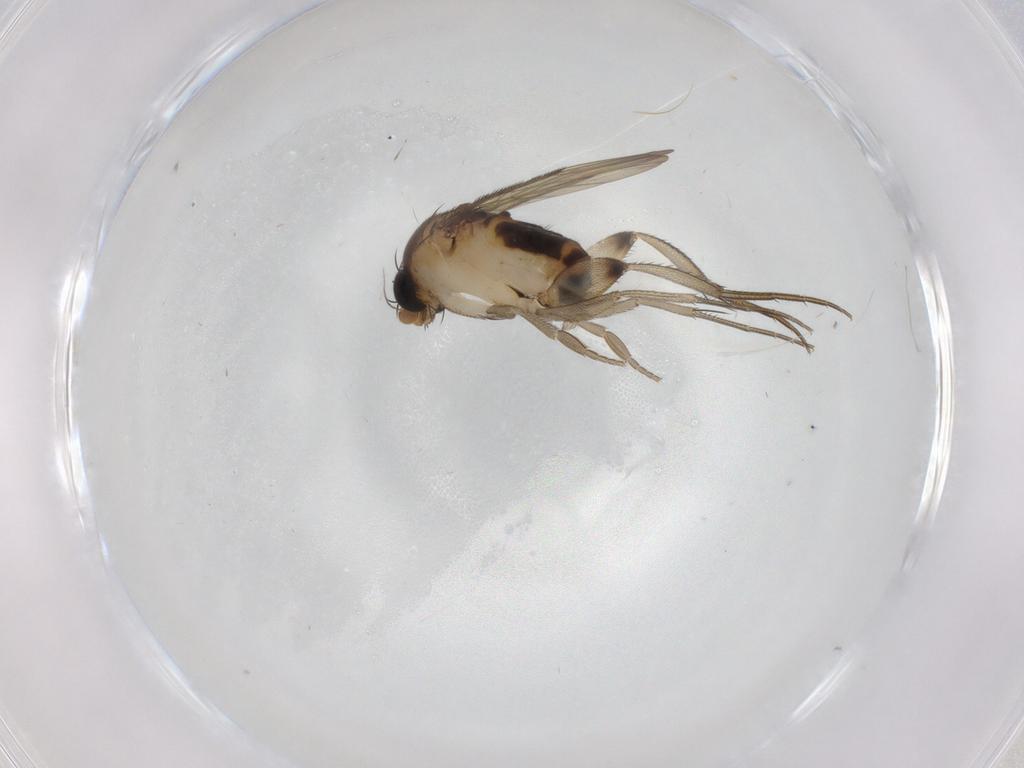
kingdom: Animalia
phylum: Arthropoda
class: Insecta
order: Diptera
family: Phoridae
